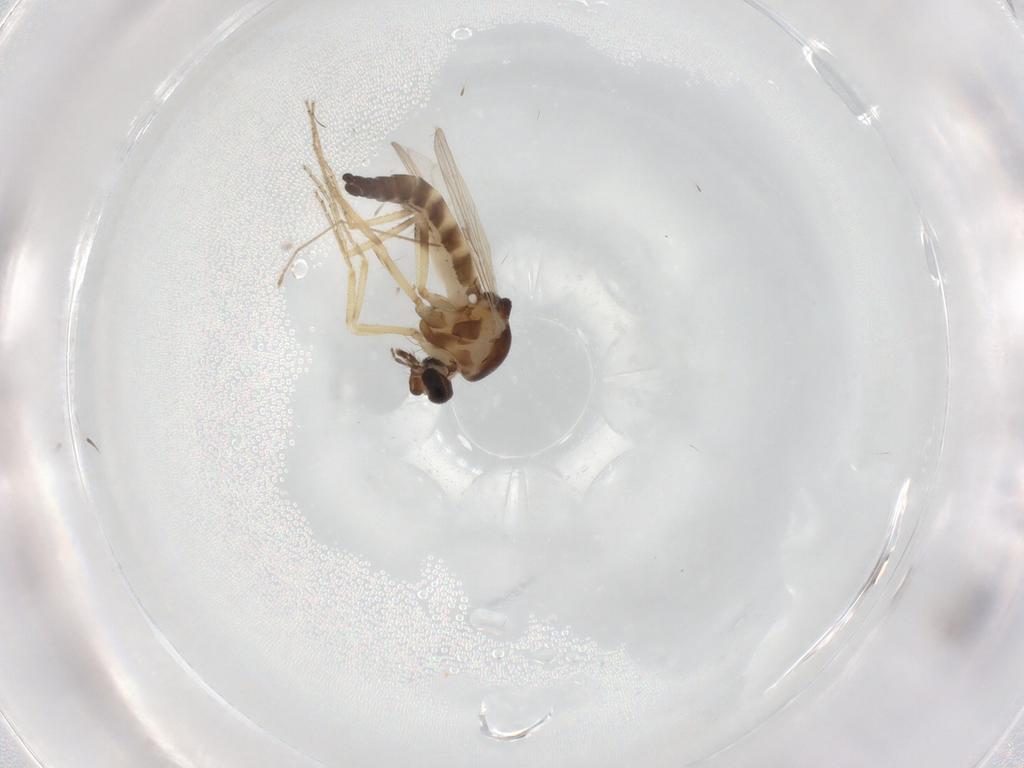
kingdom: Animalia
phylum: Arthropoda
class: Insecta
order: Diptera
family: Ceratopogonidae
